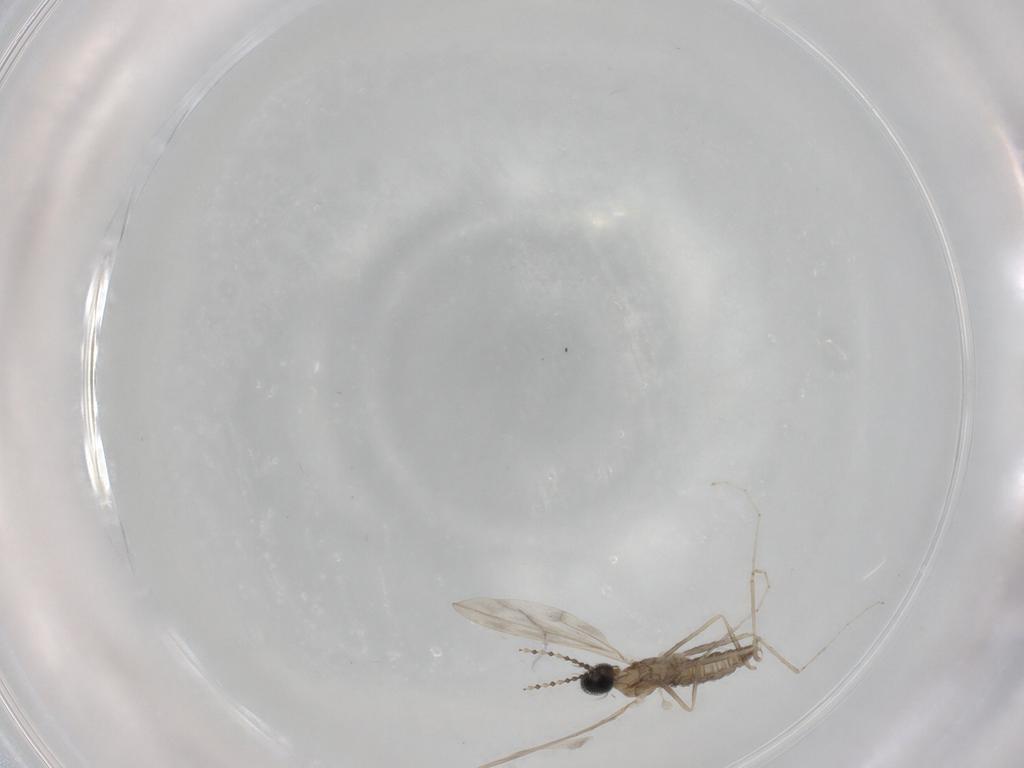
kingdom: Animalia
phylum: Arthropoda
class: Insecta
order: Diptera
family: Cecidomyiidae
